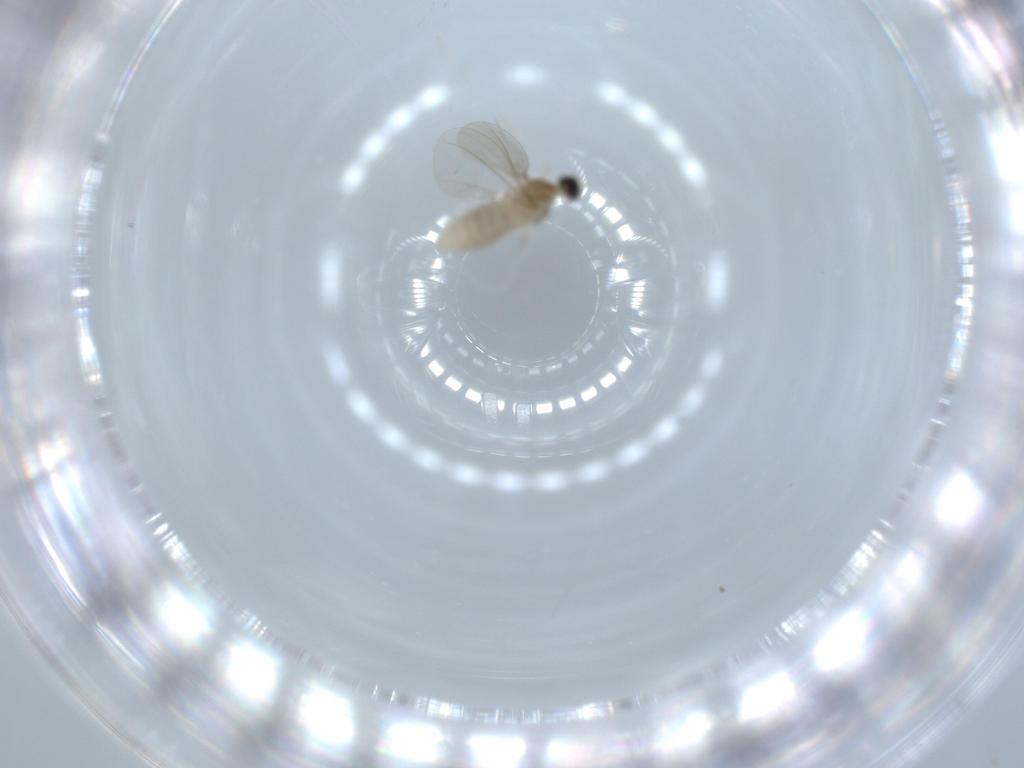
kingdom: Animalia
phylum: Arthropoda
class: Insecta
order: Diptera
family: Cecidomyiidae
